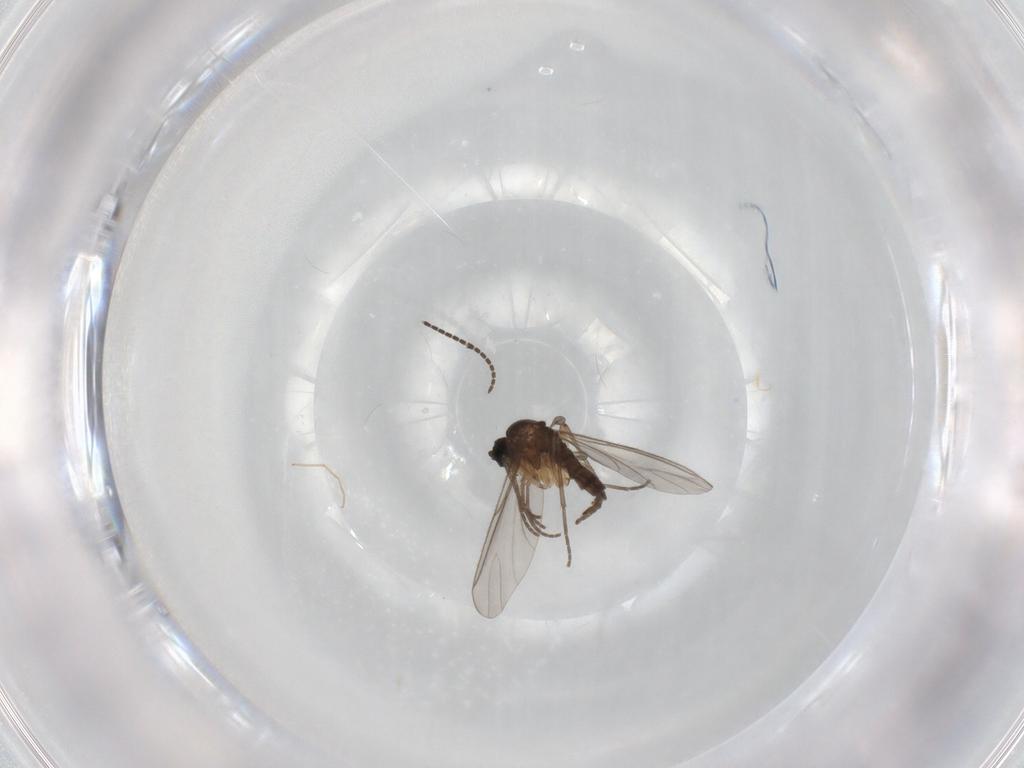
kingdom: Animalia
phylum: Arthropoda
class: Insecta
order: Diptera
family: Sciaridae
